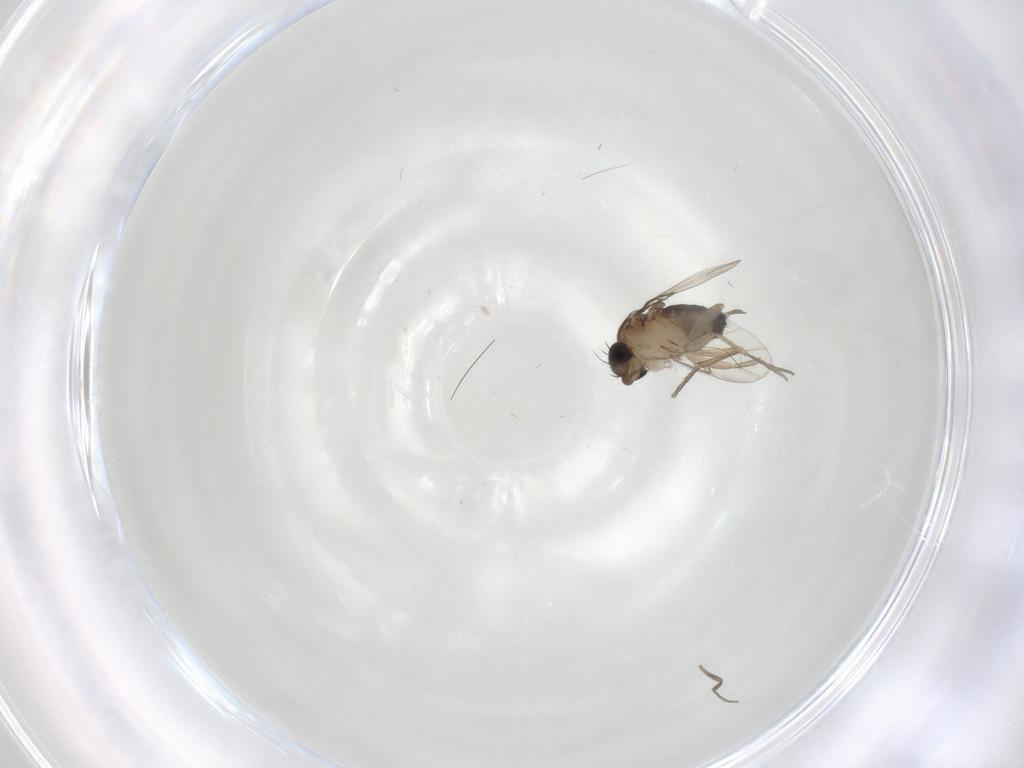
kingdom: Animalia
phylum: Arthropoda
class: Insecta
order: Diptera
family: Phoridae
